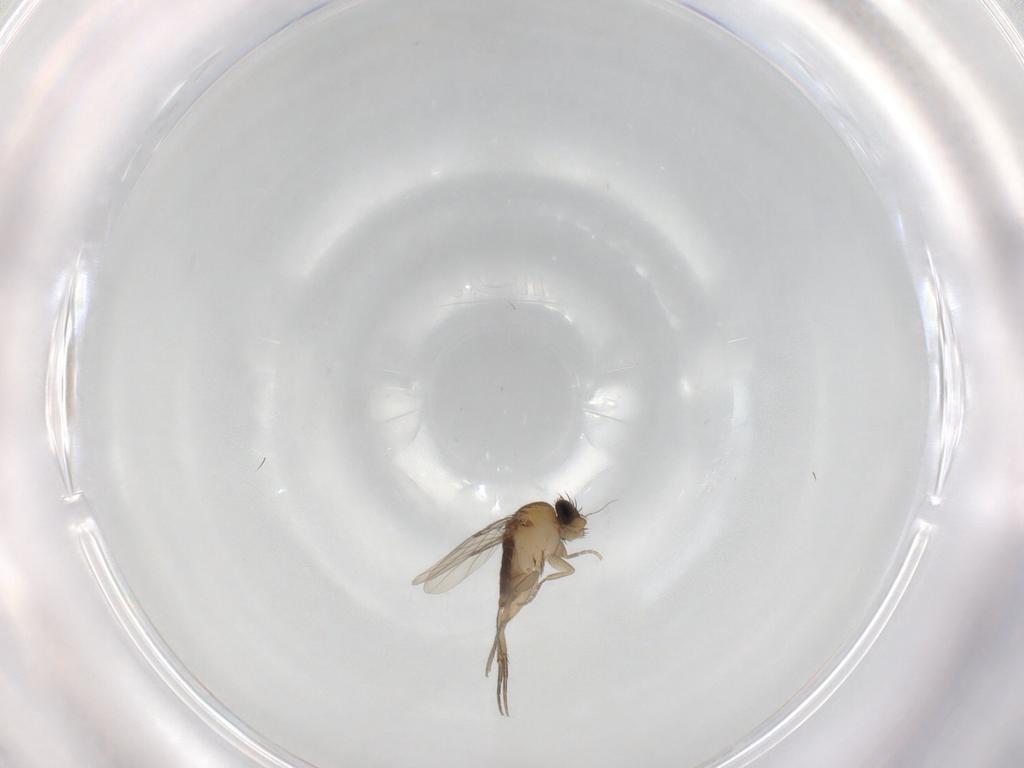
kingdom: Animalia
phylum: Arthropoda
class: Insecta
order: Diptera
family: Phoridae
